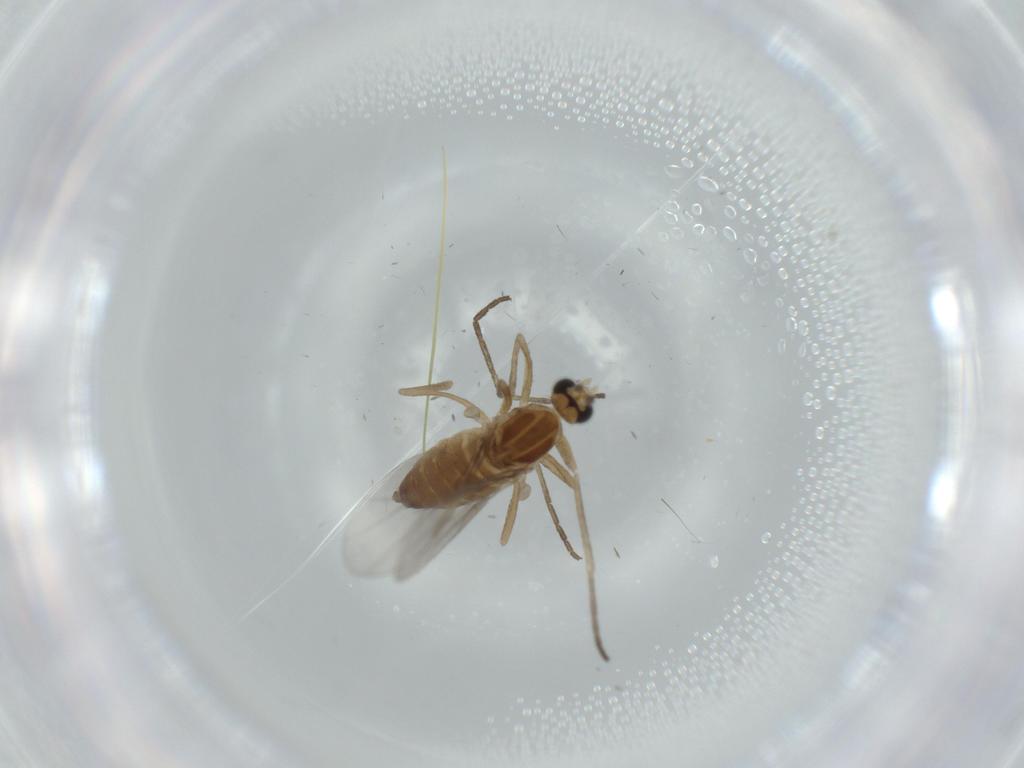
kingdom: Animalia
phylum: Arthropoda
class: Insecta
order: Diptera
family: Cecidomyiidae
